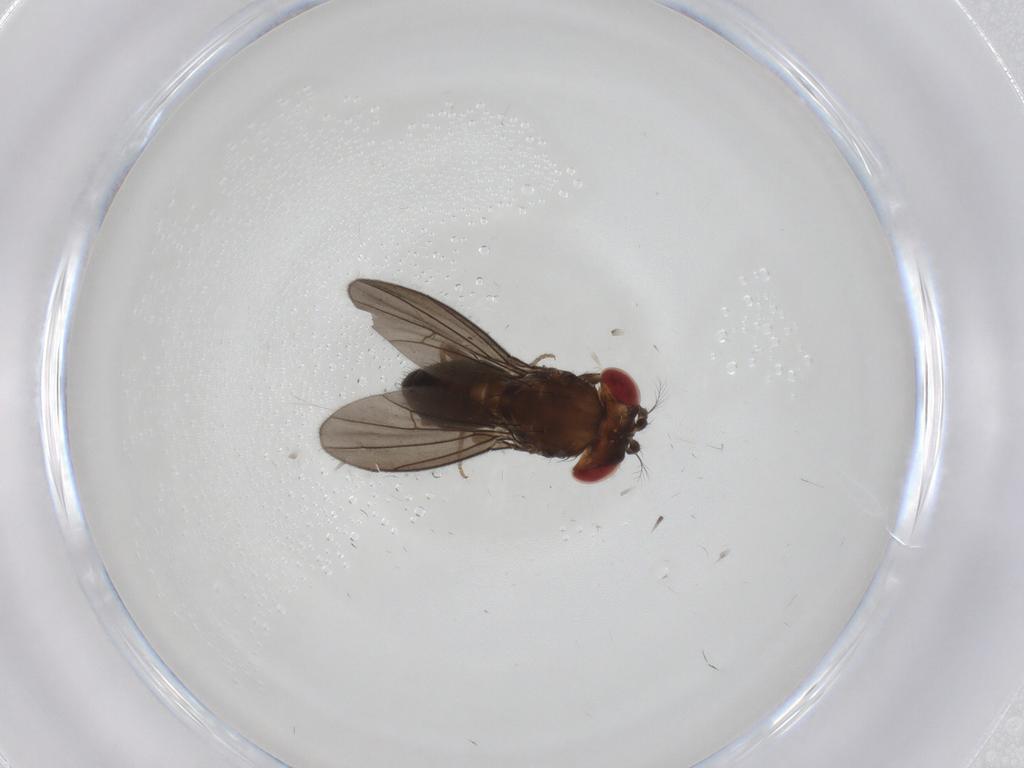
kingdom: Animalia
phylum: Arthropoda
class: Insecta
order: Diptera
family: Drosophilidae
